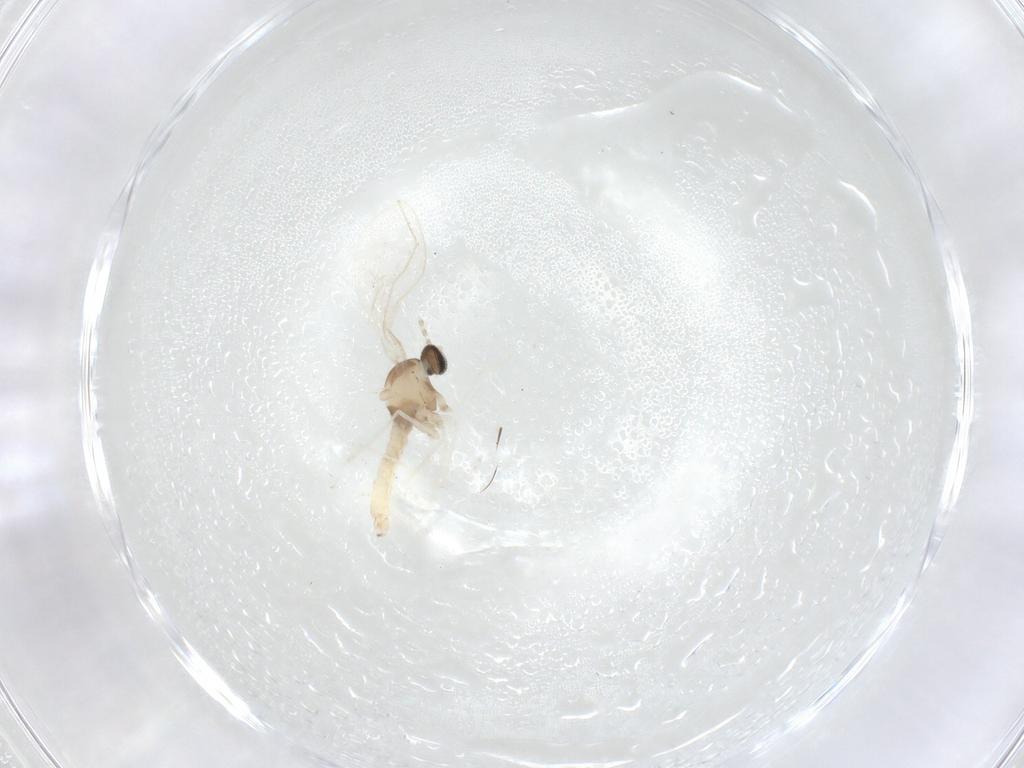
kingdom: Animalia
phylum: Arthropoda
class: Insecta
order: Diptera
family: Cecidomyiidae
